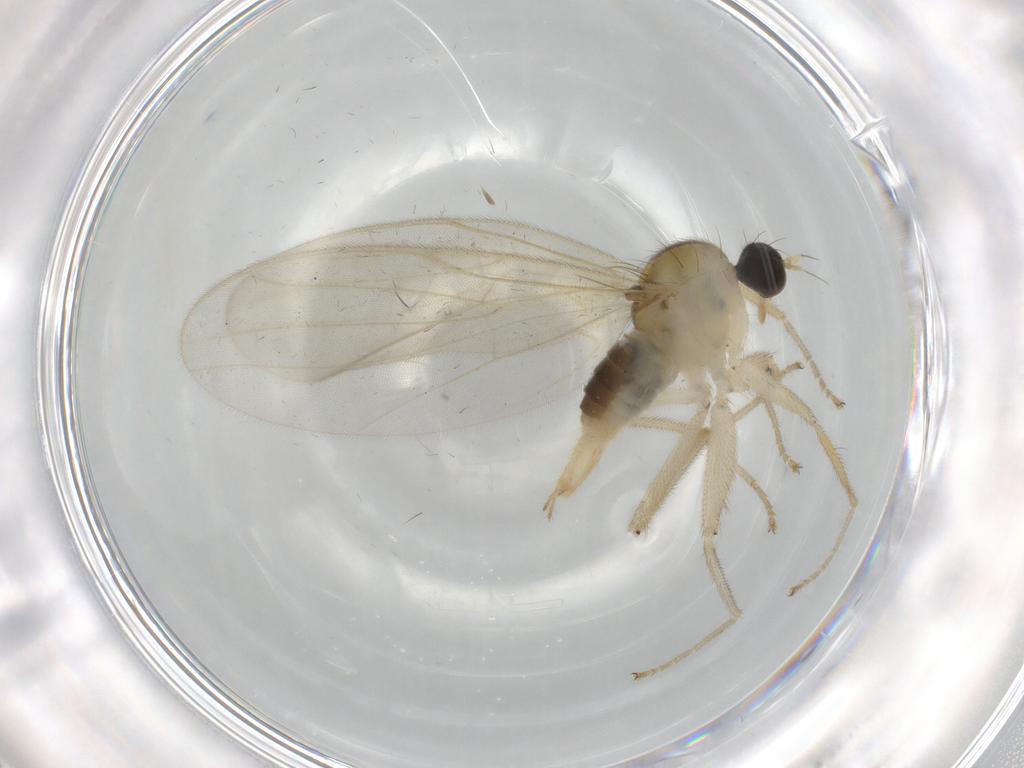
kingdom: Animalia
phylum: Arthropoda
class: Insecta
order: Diptera
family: Hybotidae
